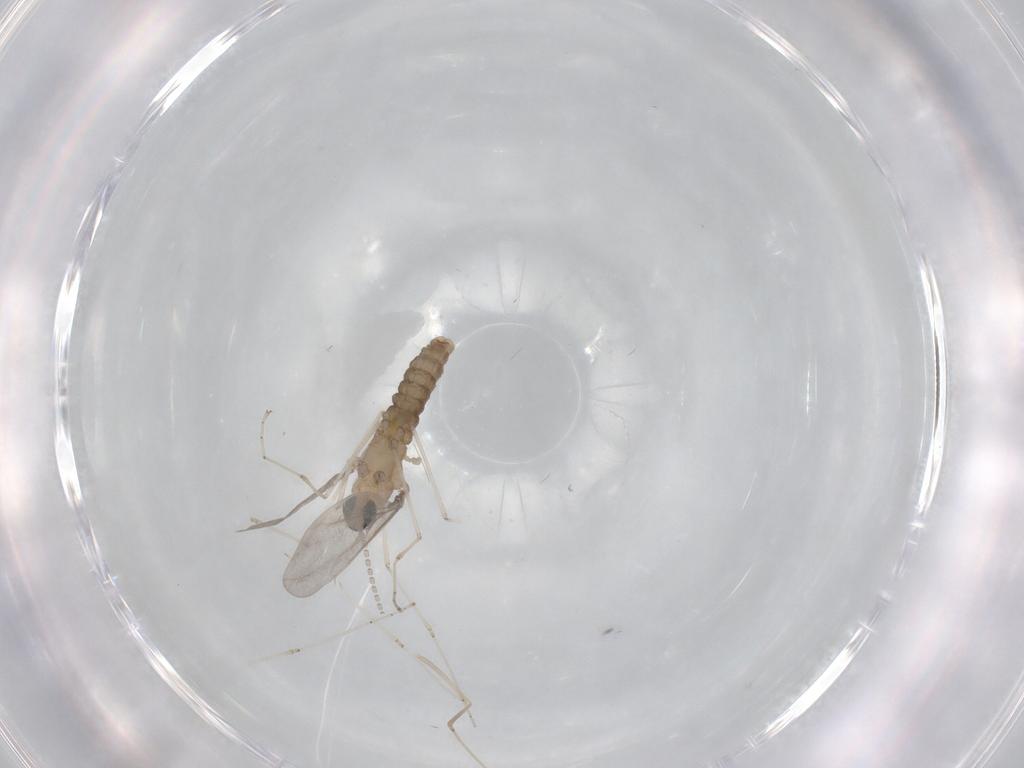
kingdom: Animalia
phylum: Arthropoda
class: Insecta
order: Diptera
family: Cecidomyiidae
